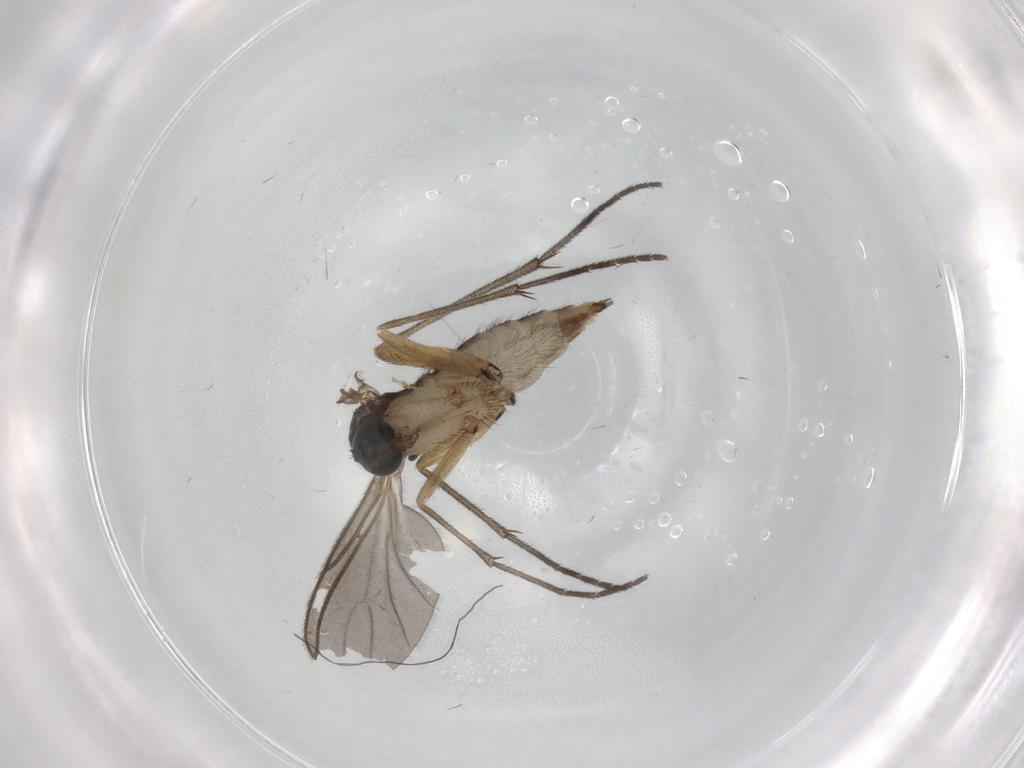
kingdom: Animalia
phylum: Arthropoda
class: Insecta
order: Diptera
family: Sciaridae
